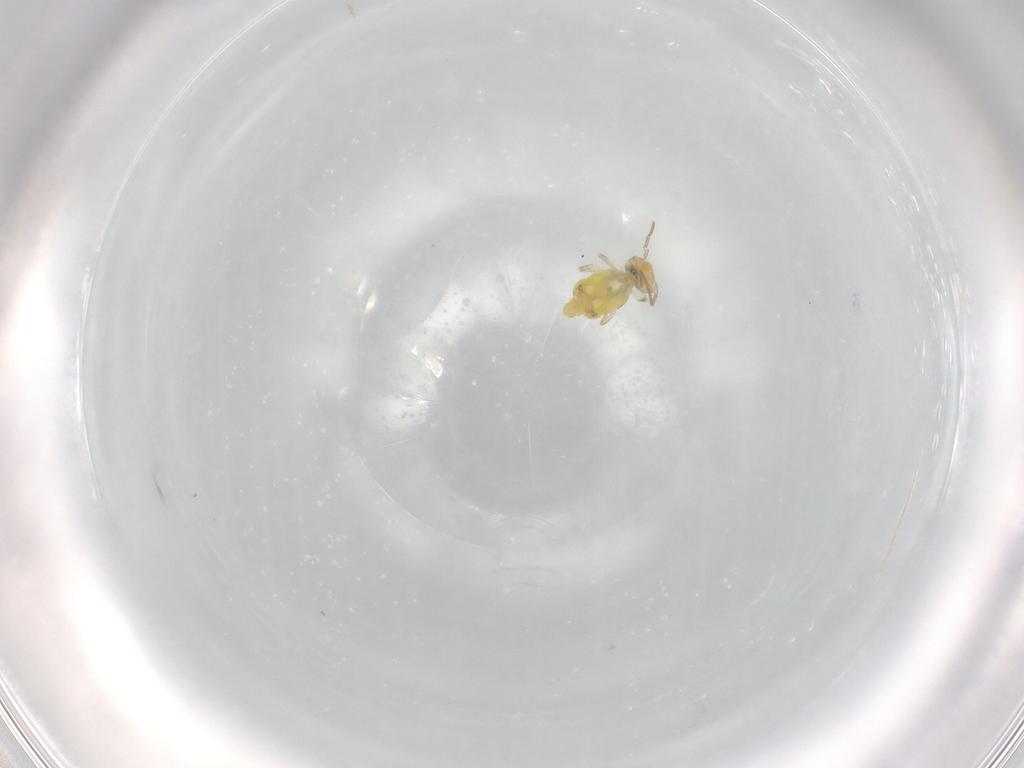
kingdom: Animalia
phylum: Arthropoda
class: Collembola
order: Symphypleona
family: Bourletiellidae
